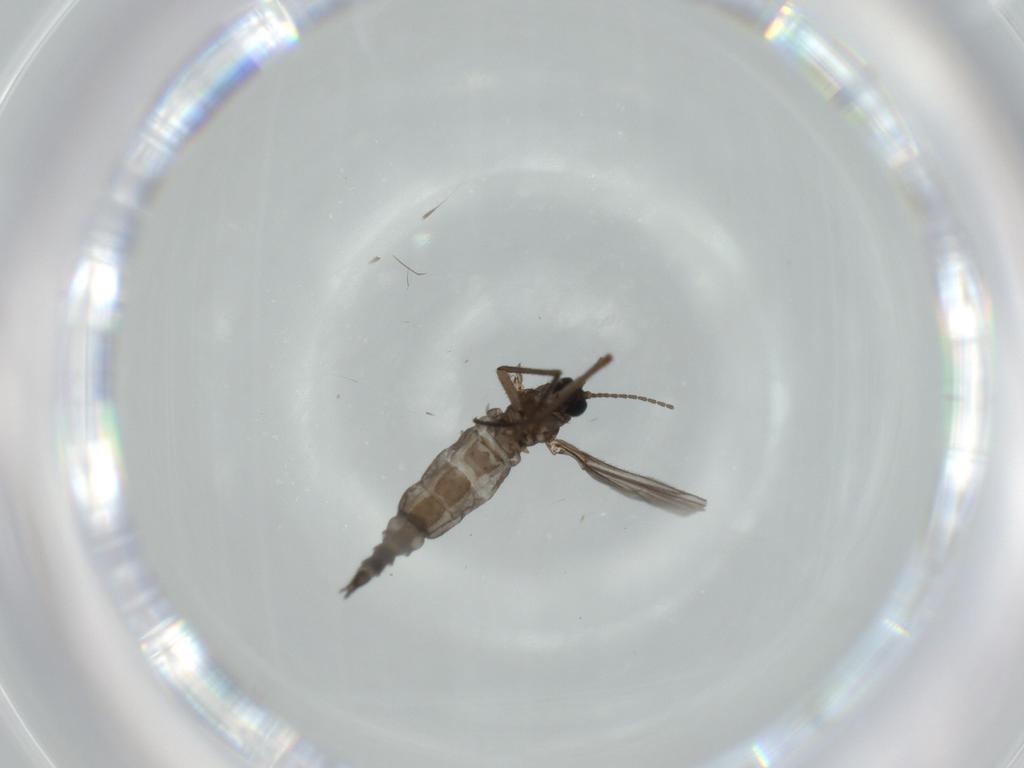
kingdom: Animalia
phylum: Arthropoda
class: Insecta
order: Diptera
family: Sciaridae
